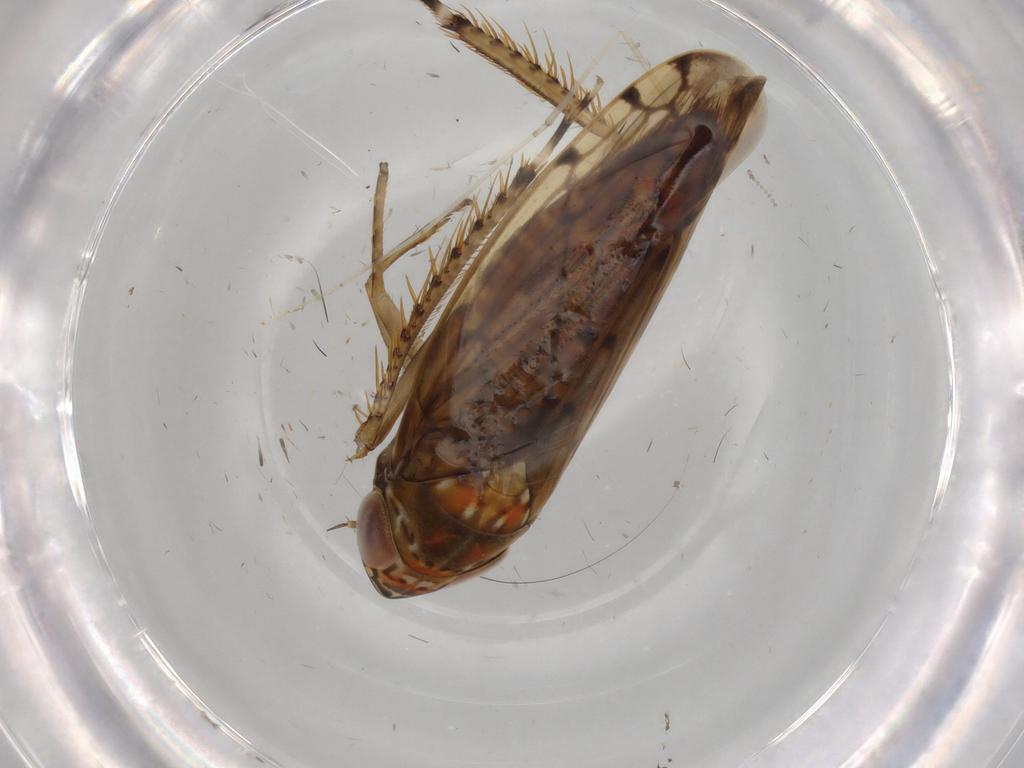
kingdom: Animalia
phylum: Arthropoda
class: Insecta
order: Hemiptera
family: Cicadellidae
